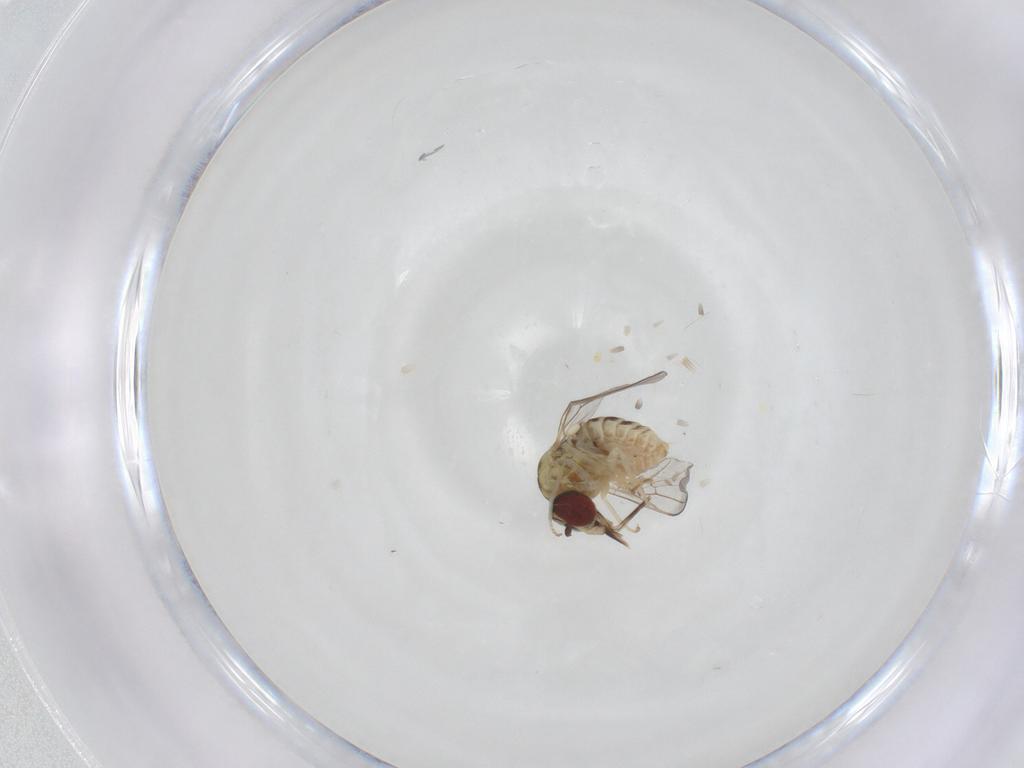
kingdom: Animalia
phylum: Arthropoda
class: Insecta
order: Diptera
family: Mythicomyiidae
